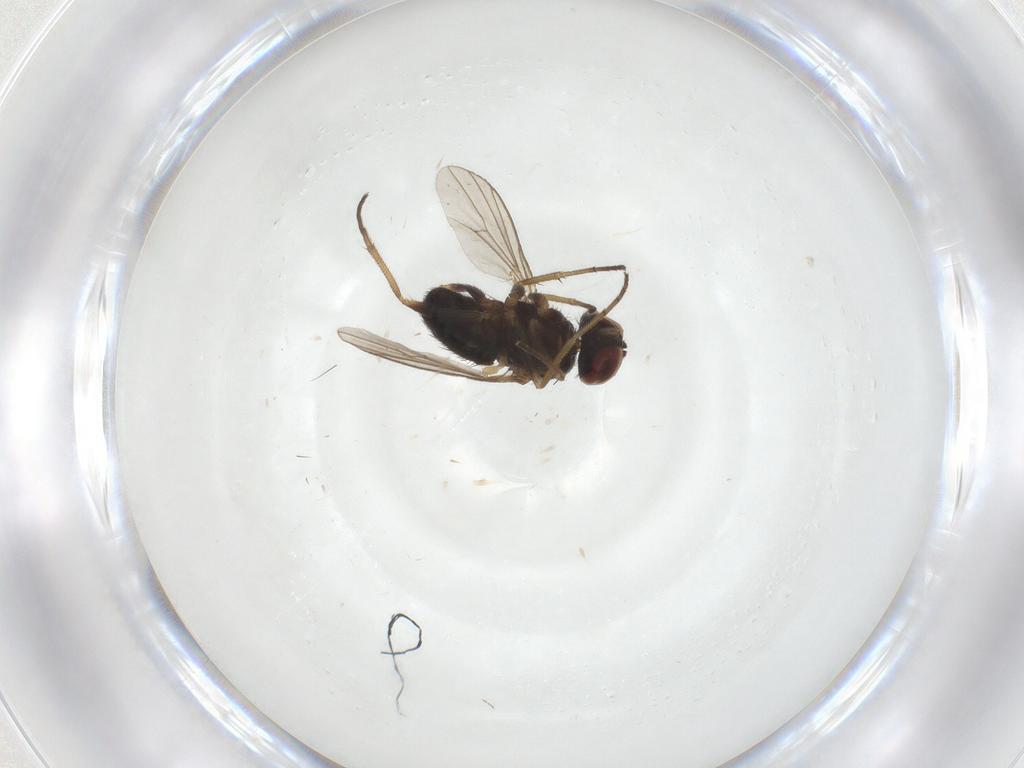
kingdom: Animalia
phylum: Arthropoda
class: Insecta
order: Diptera
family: Dolichopodidae
